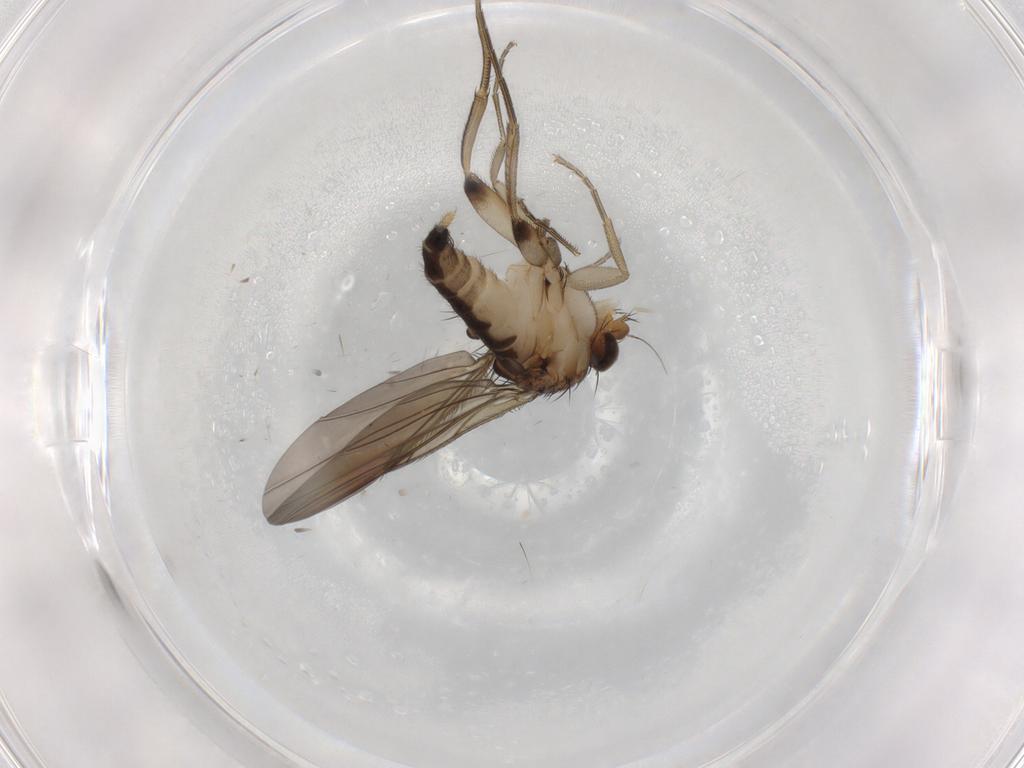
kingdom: Animalia
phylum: Arthropoda
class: Insecta
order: Diptera
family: Phoridae
